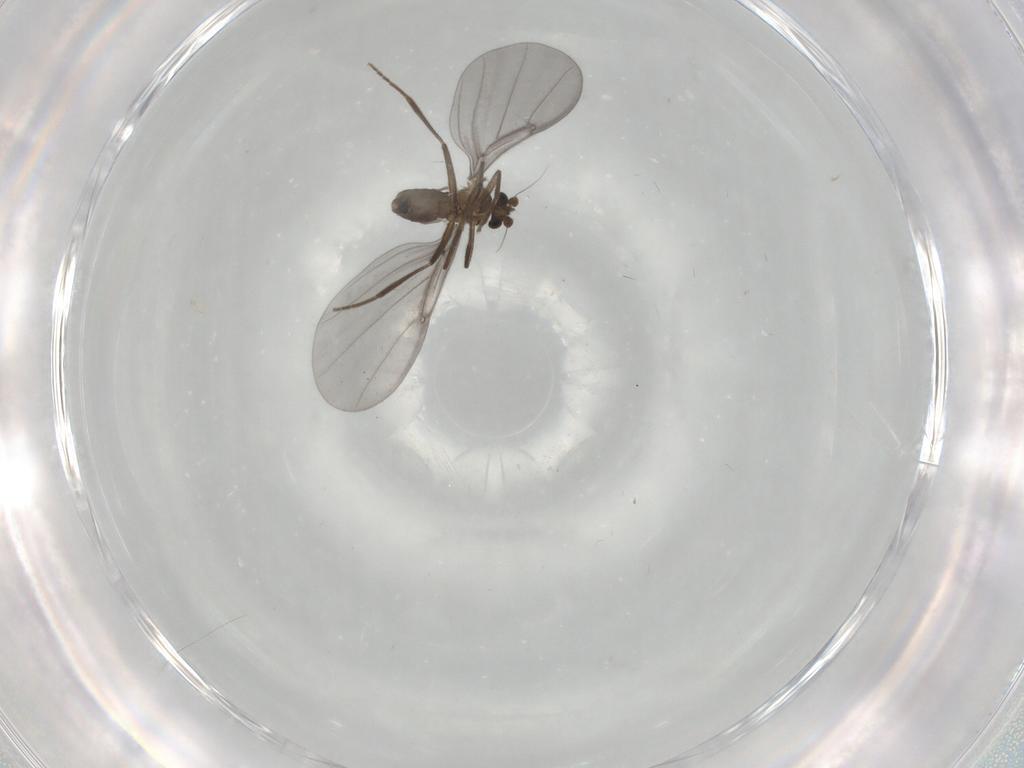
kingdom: Animalia
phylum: Arthropoda
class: Insecta
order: Diptera
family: Phoridae
